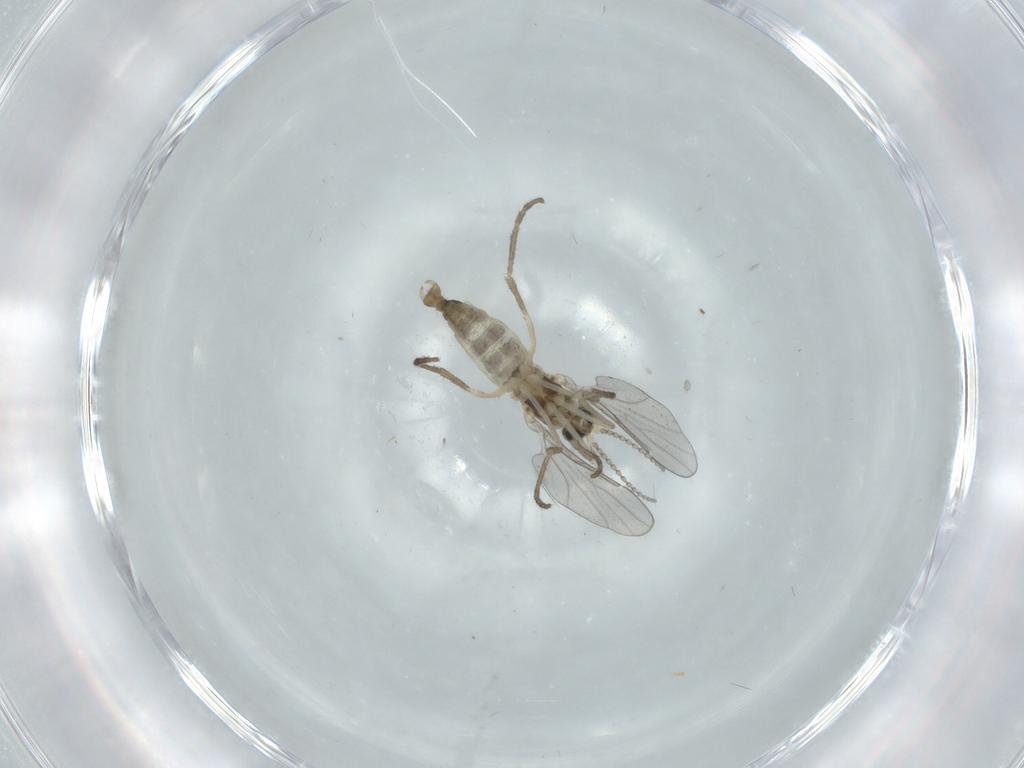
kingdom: Animalia
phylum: Arthropoda
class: Insecta
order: Diptera
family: Cecidomyiidae
